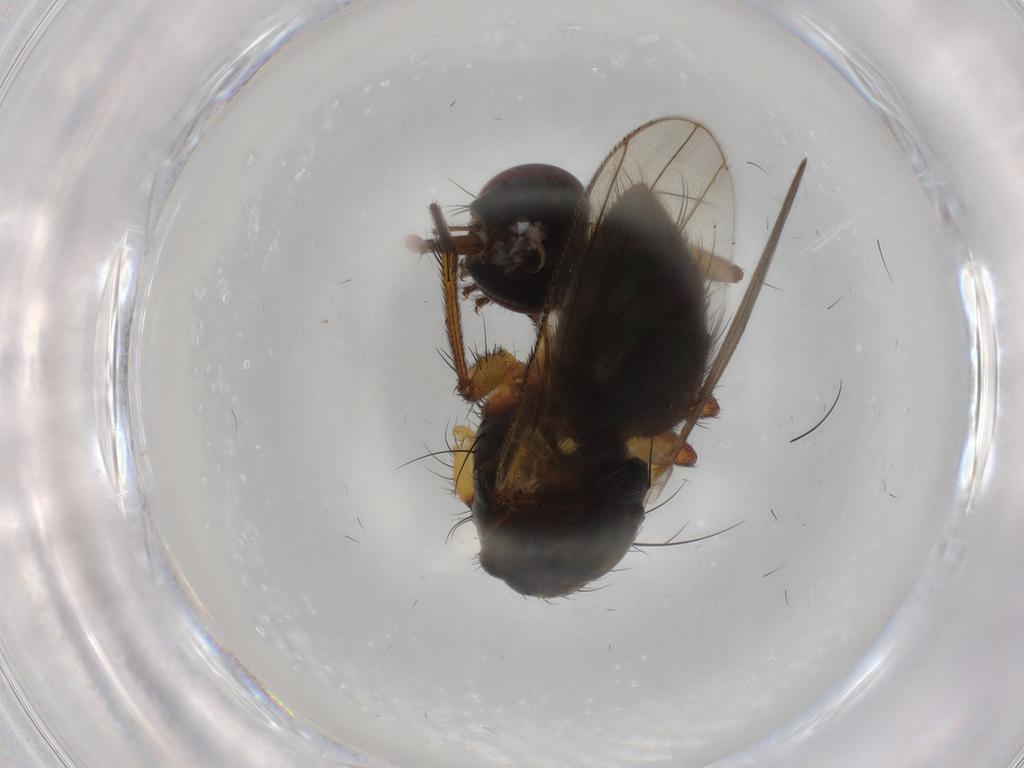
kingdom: Animalia
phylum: Arthropoda
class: Insecta
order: Diptera
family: Muscidae
